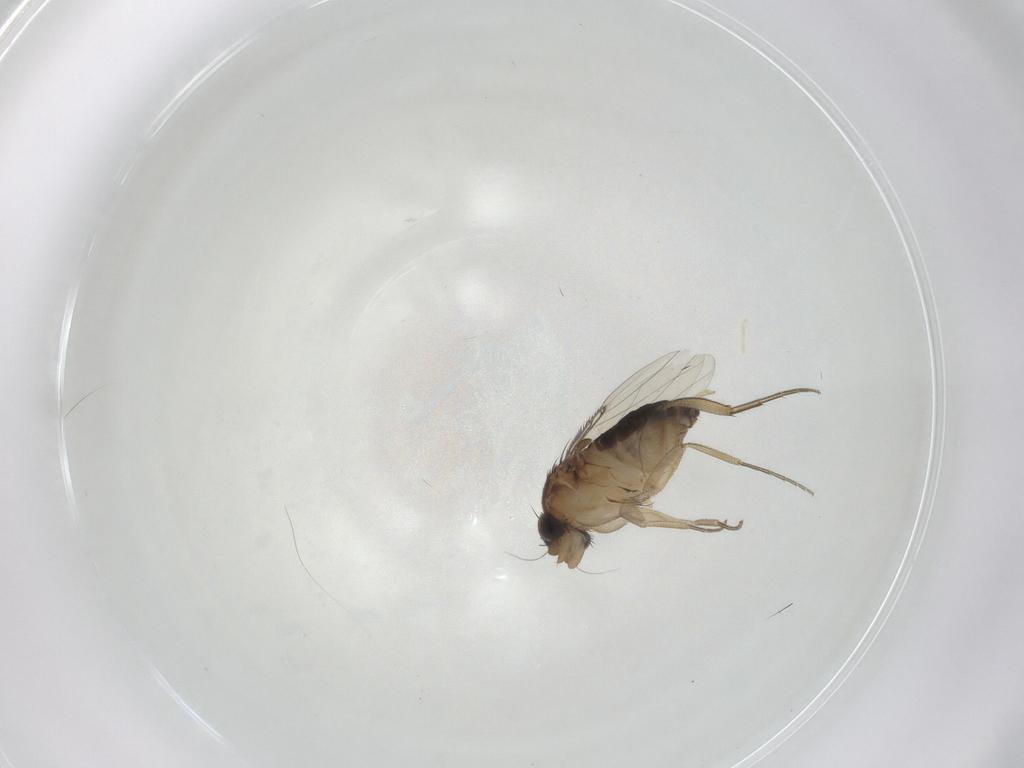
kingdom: Animalia
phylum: Arthropoda
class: Insecta
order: Diptera
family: Phoridae
